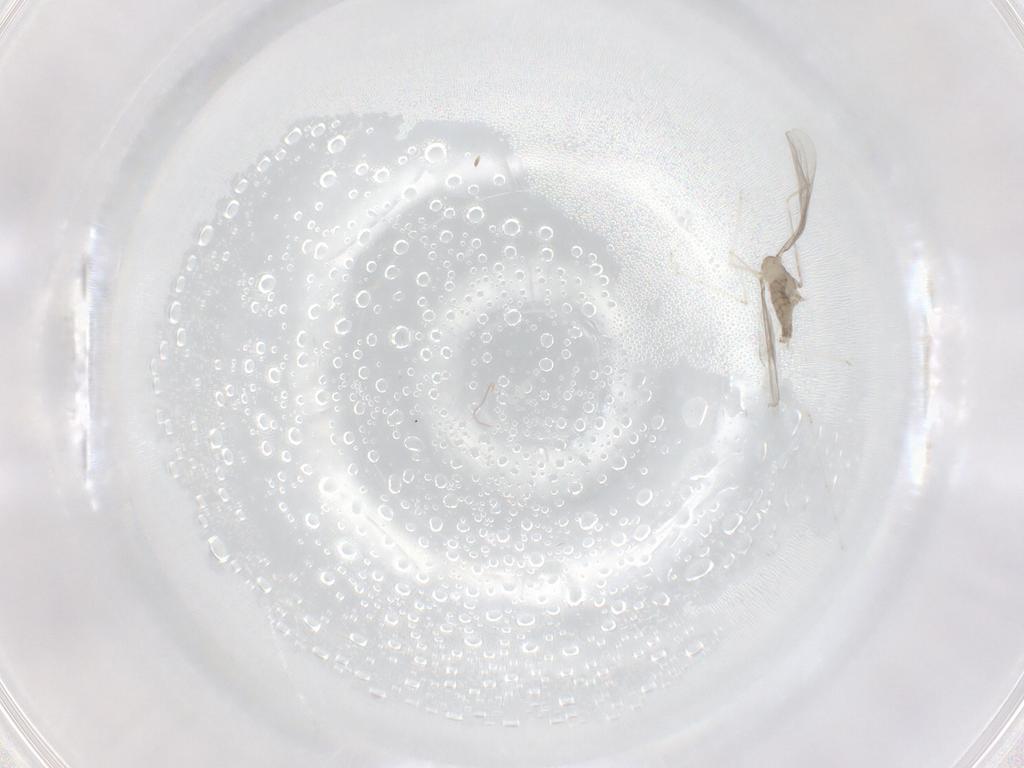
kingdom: Animalia
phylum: Arthropoda
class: Insecta
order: Diptera
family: Cecidomyiidae
